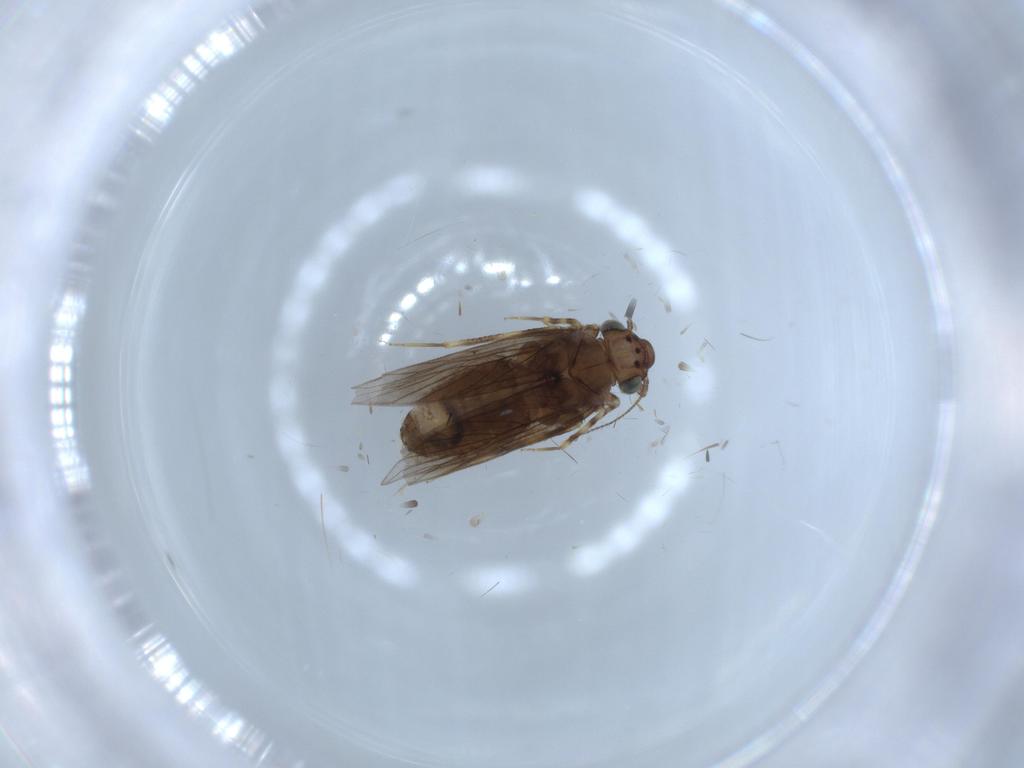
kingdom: Animalia
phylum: Arthropoda
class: Insecta
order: Psocodea
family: Lepidopsocidae
